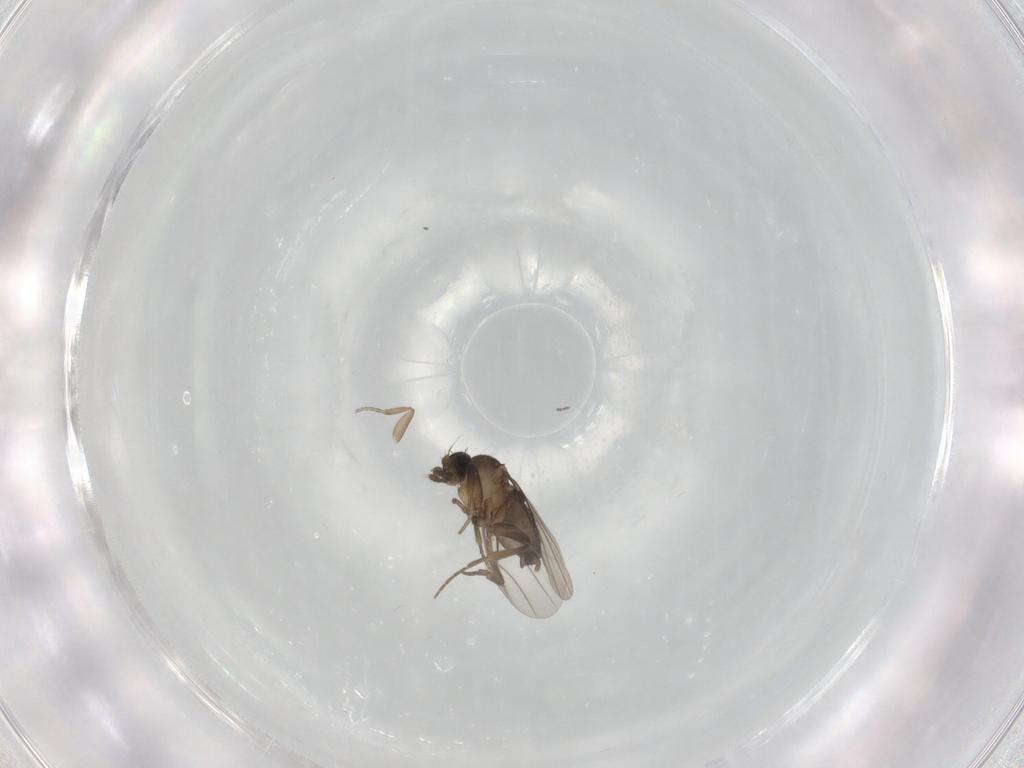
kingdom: Animalia
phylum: Arthropoda
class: Insecta
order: Diptera
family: Phoridae
